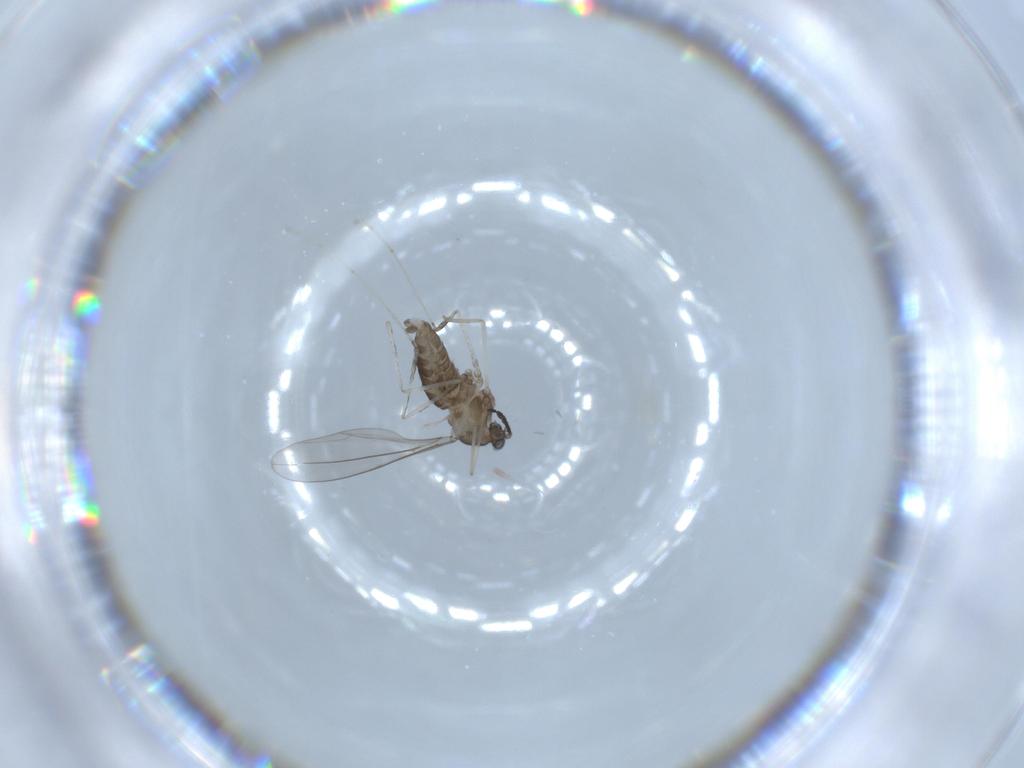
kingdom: Animalia
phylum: Arthropoda
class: Insecta
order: Diptera
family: Cecidomyiidae
